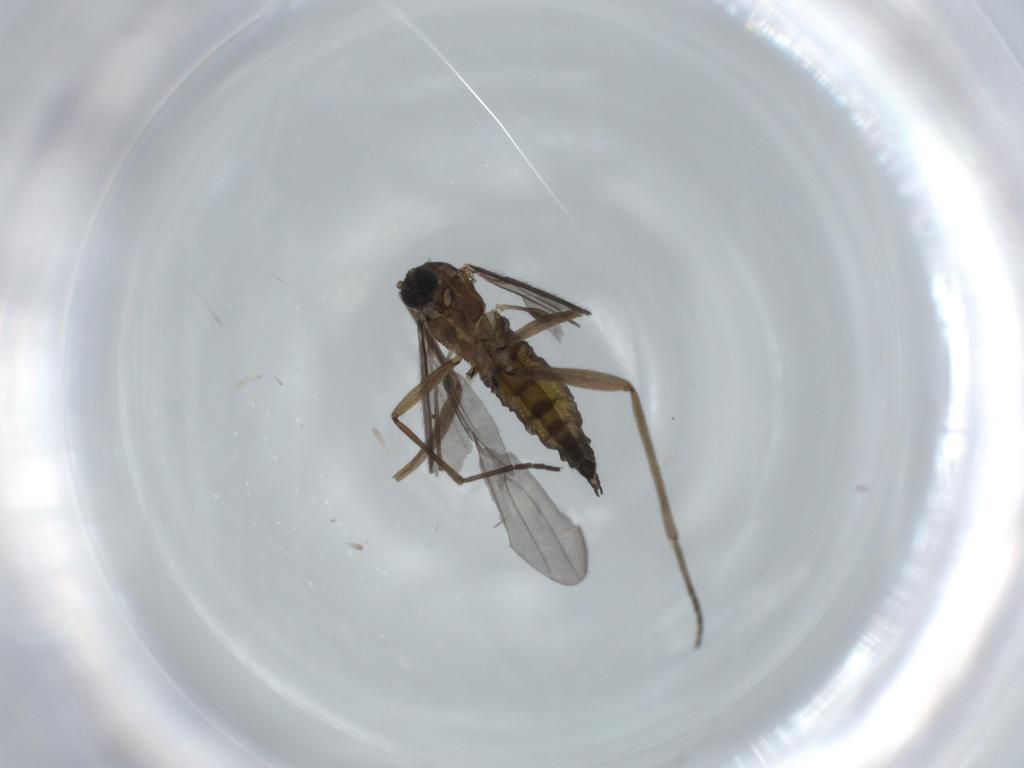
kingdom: Animalia
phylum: Arthropoda
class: Insecta
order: Diptera
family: Sciaridae
